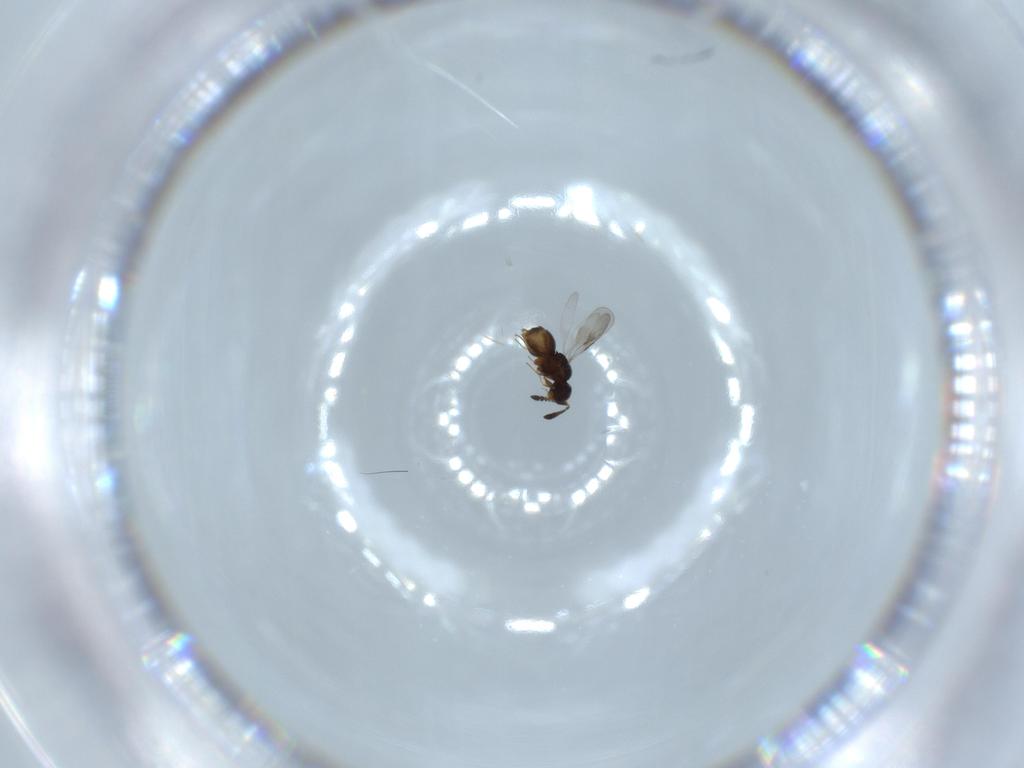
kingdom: Animalia
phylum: Arthropoda
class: Insecta
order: Hymenoptera
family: Ceraphronidae
